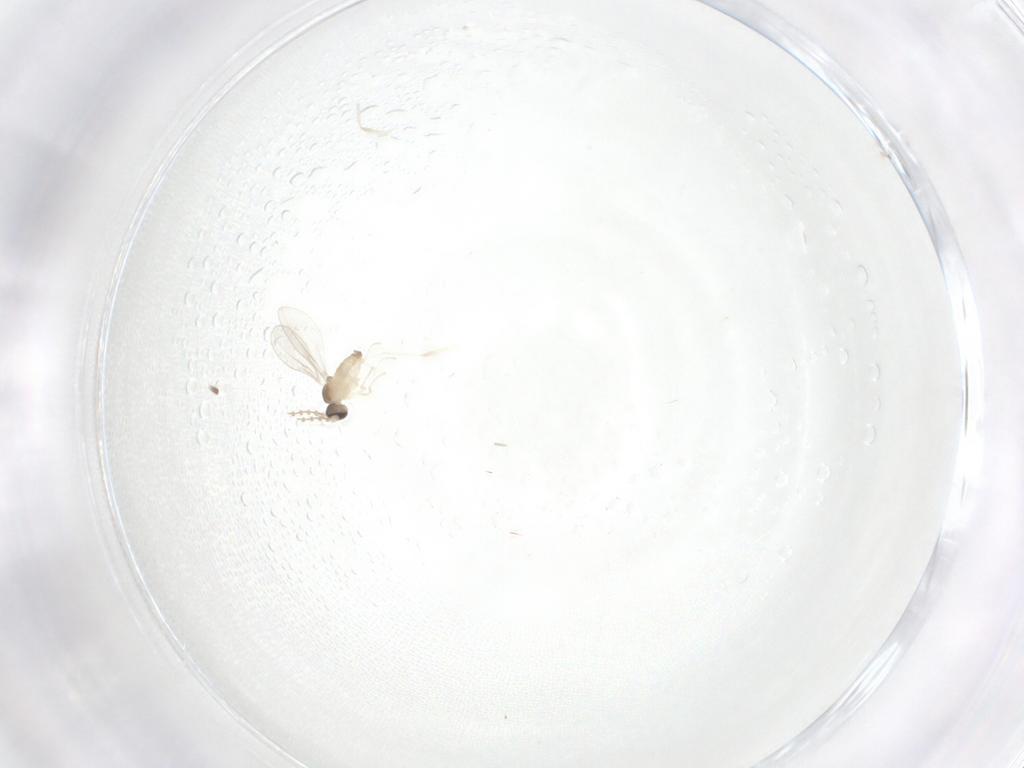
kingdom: Animalia
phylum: Arthropoda
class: Insecta
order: Diptera
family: Cecidomyiidae
